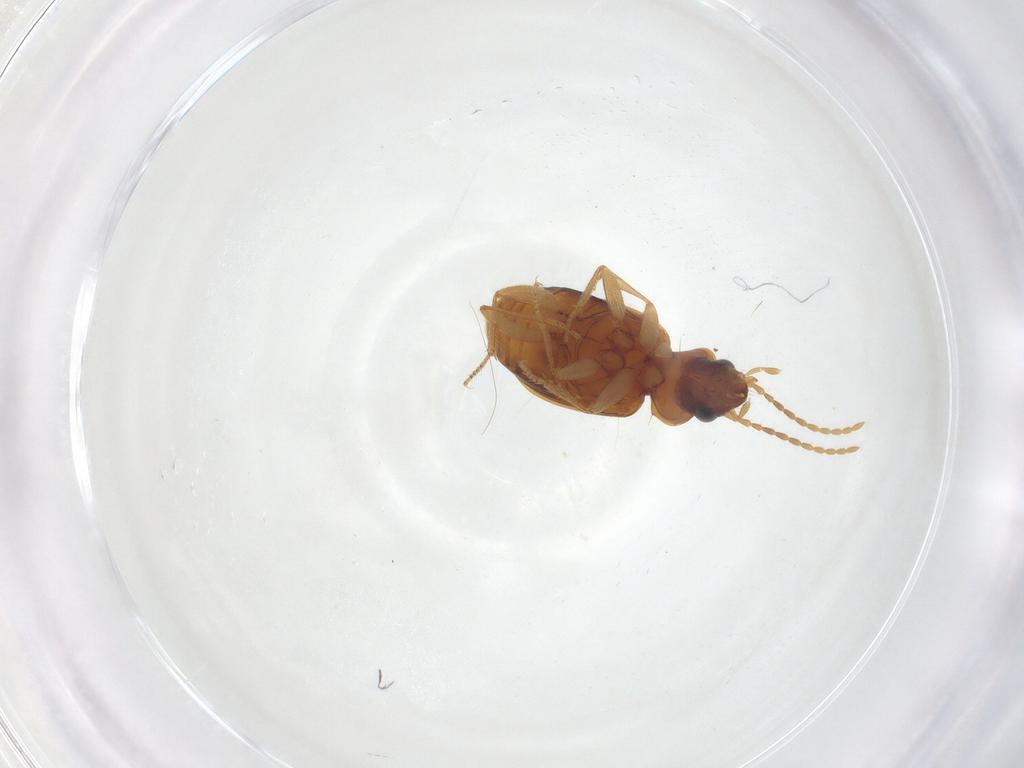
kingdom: Animalia
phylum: Arthropoda
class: Insecta
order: Coleoptera
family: Carabidae
